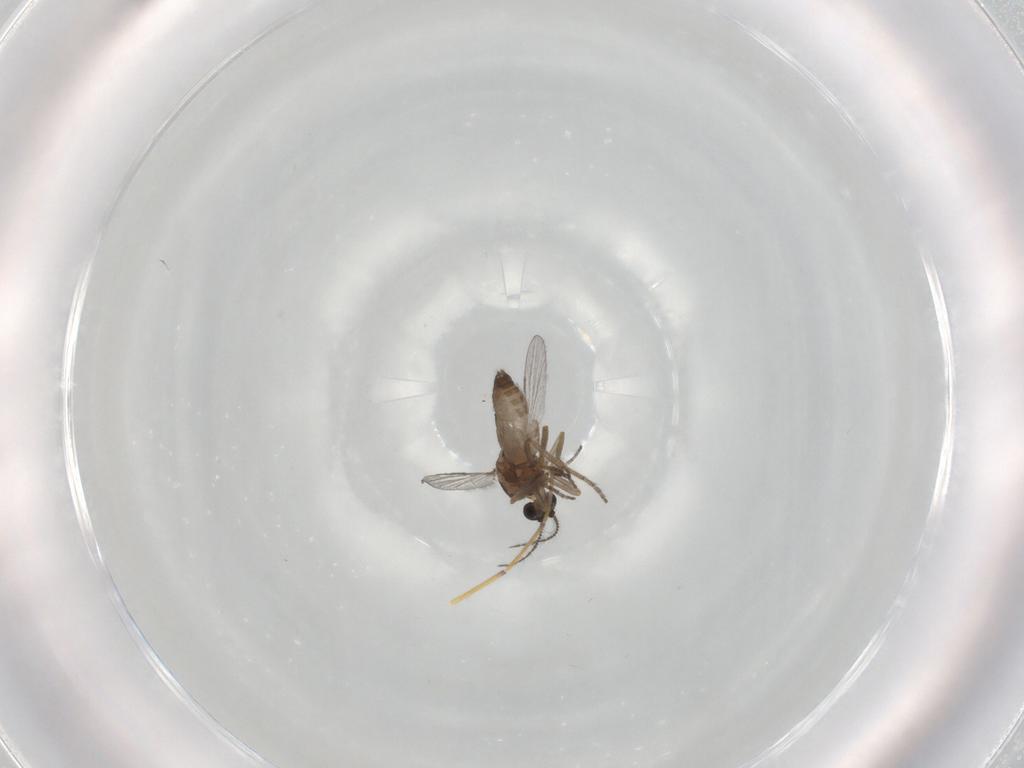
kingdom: Animalia
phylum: Arthropoda
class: Insecta
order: Diptera
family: Ceratopogonidae
